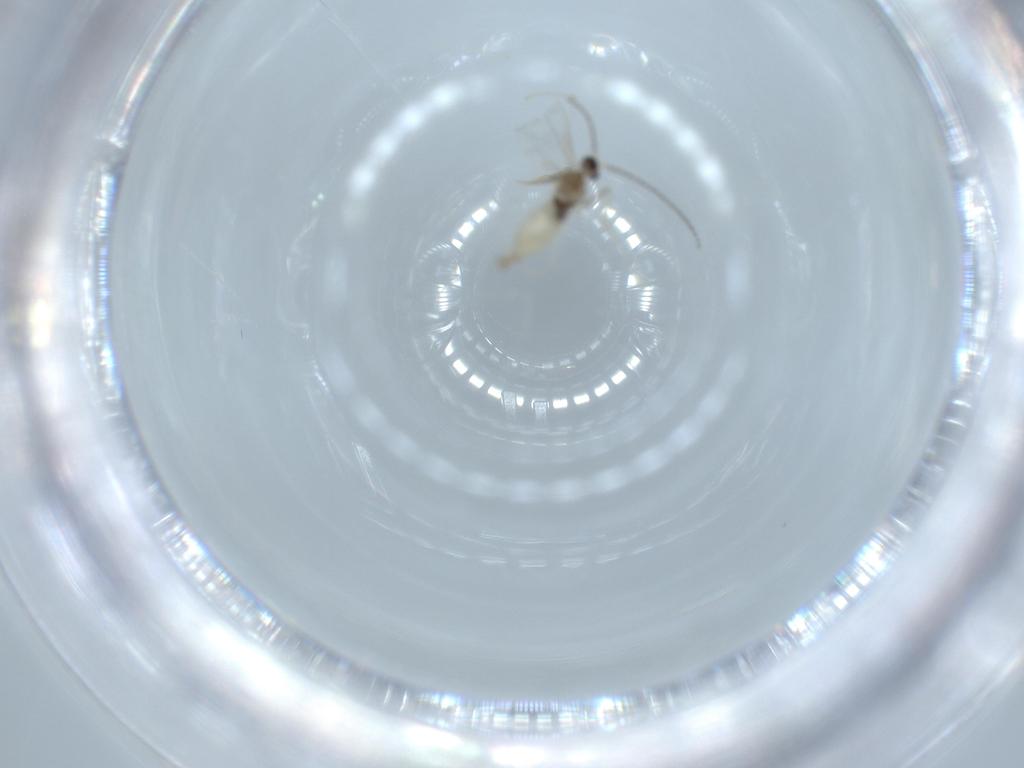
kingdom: Animalia
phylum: Arthropoda
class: Insecta
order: Diptera
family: Cecidomyiidae
